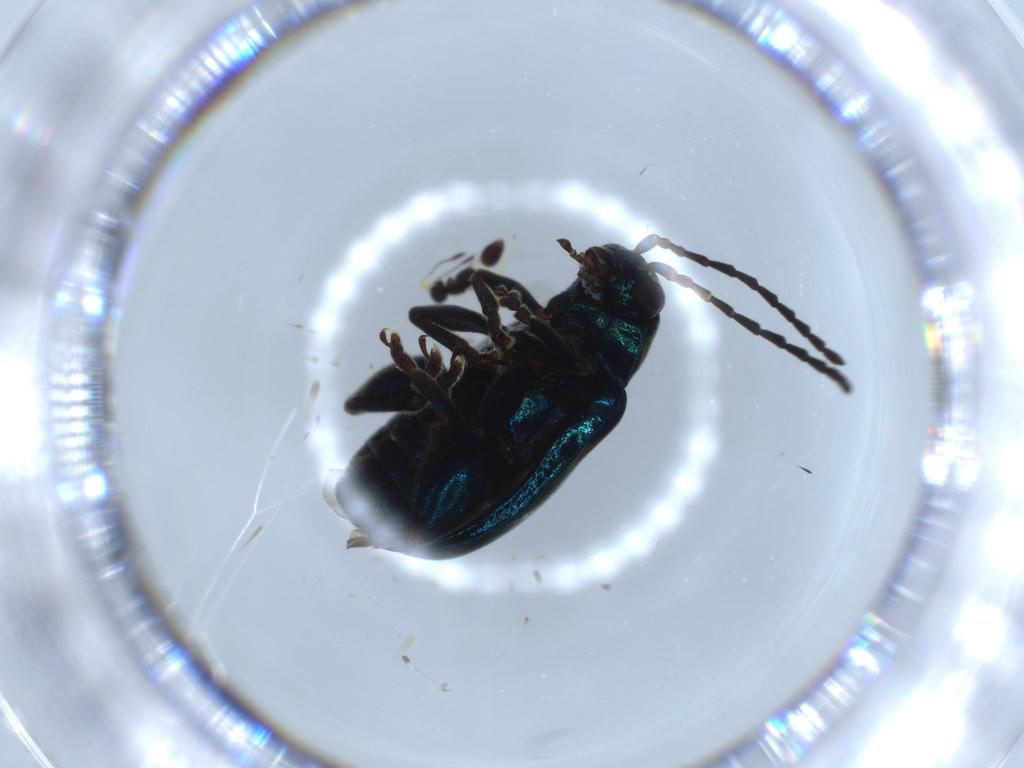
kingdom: Animalia
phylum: Arthropoda
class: Insecta
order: Coleoptera
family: Chrysomelidae
